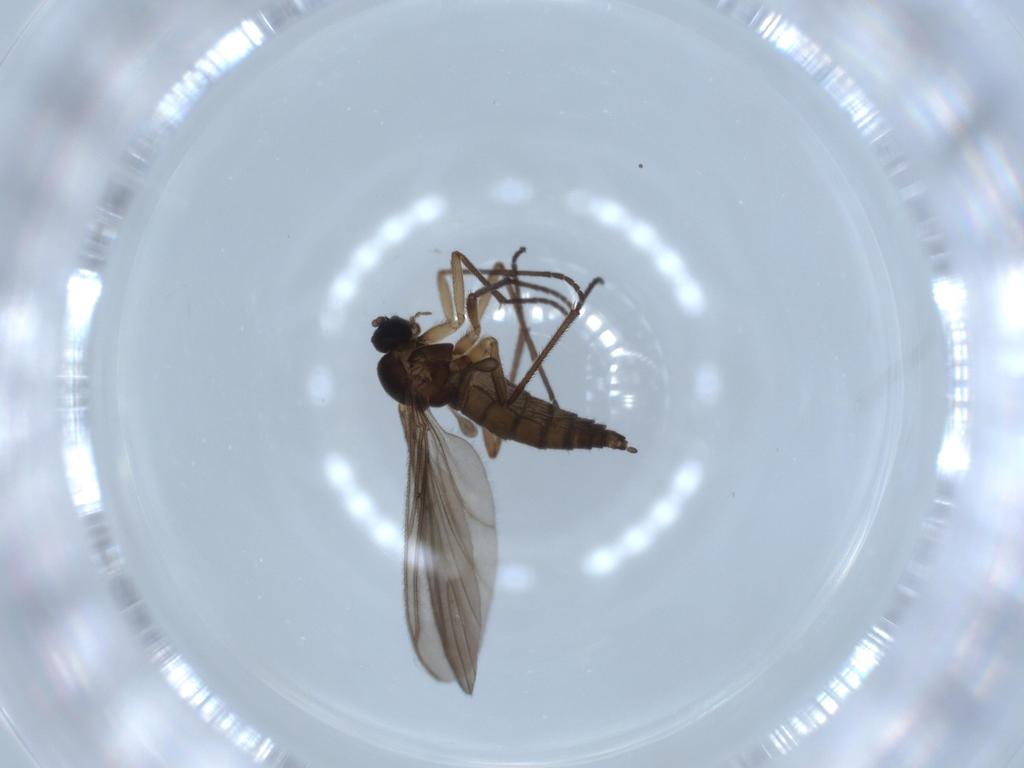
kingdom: Animalia
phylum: Arthropoda
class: Insecta
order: Diptera
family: Sciaridae
